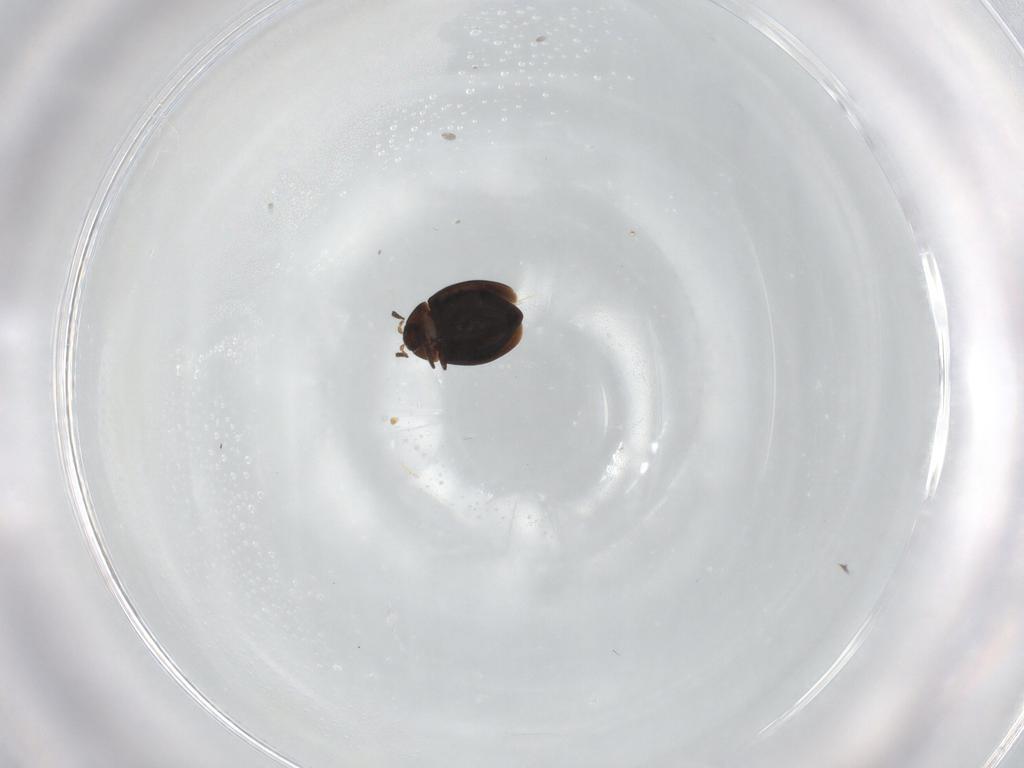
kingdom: Animalia
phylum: Arthropoda
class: Insecta
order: Coleoptera
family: Corylophidae
